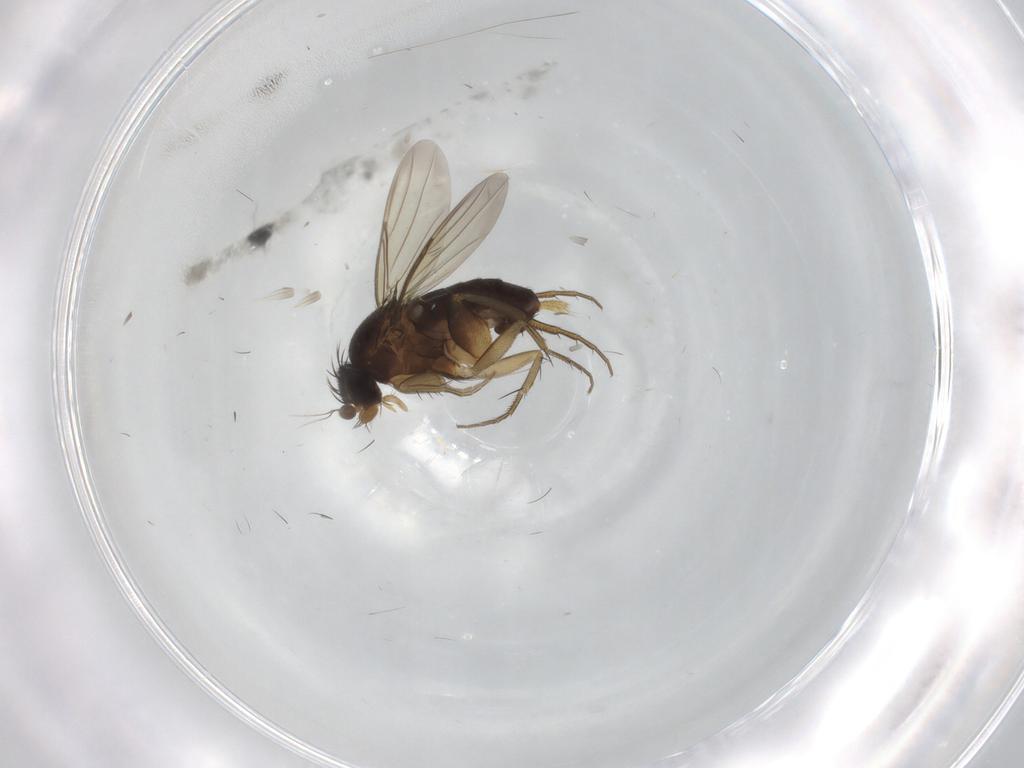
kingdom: Animalia
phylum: Arthropoda
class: Insecta
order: Diptera
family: Phoridae
